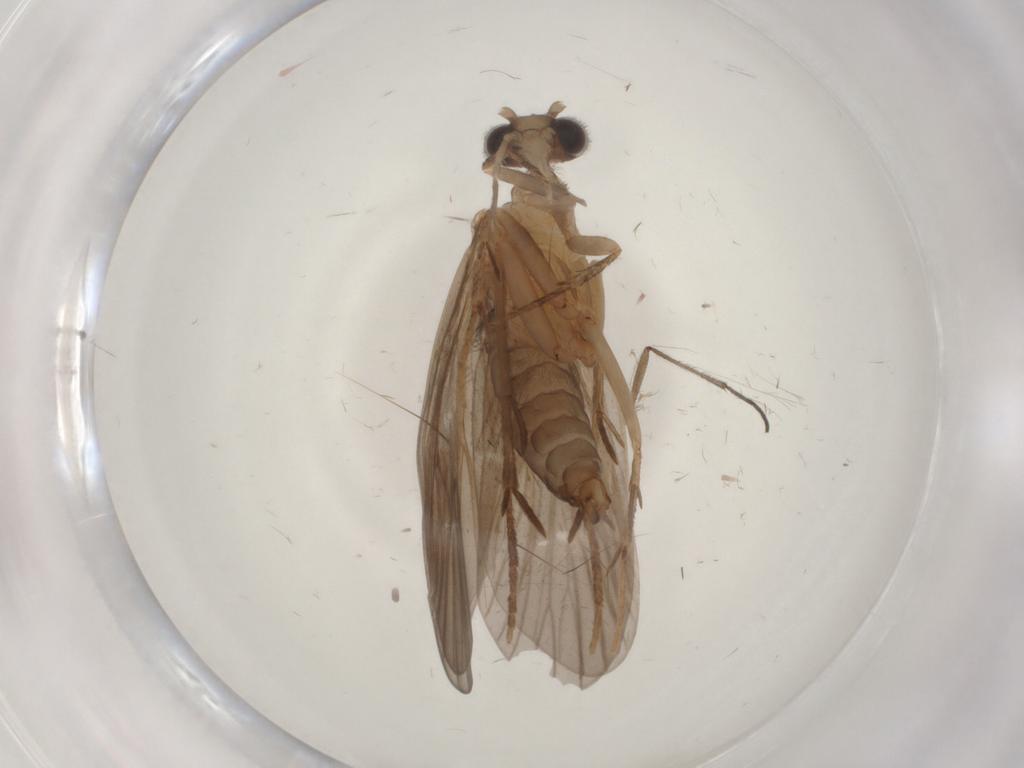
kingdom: Animalia
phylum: Arthropoda
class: Insecta
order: Trichoptera
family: Philopotamidae
